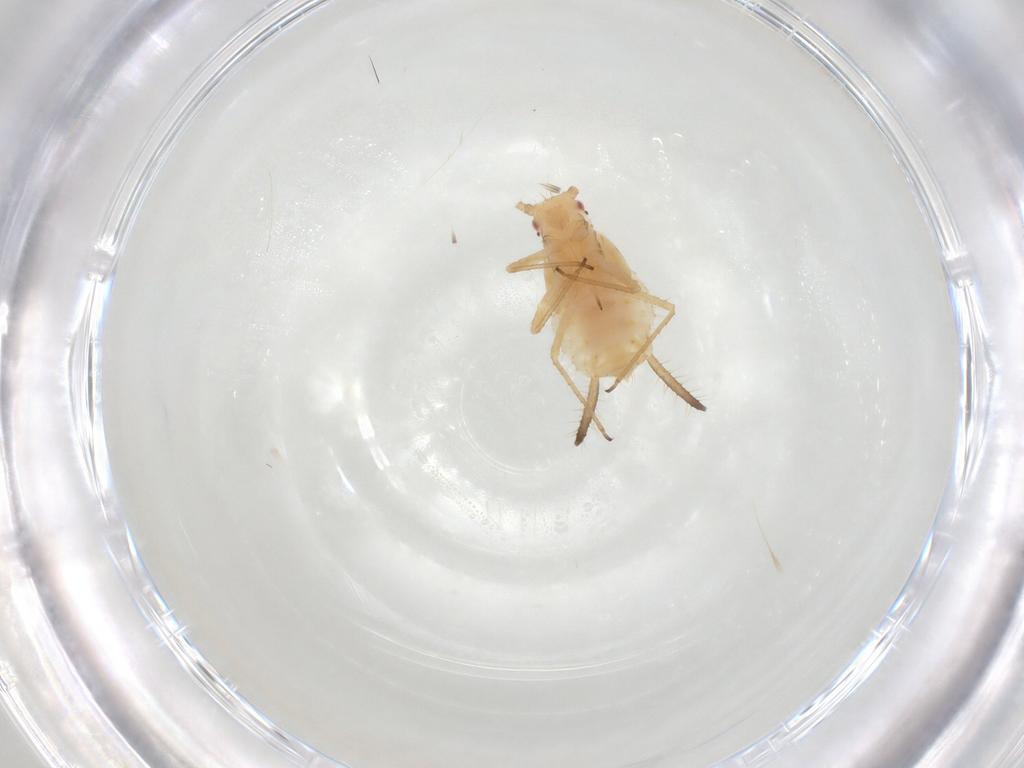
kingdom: Animalia
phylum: Arthropoda
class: Insecta
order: Hemiptera
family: Aphididae
